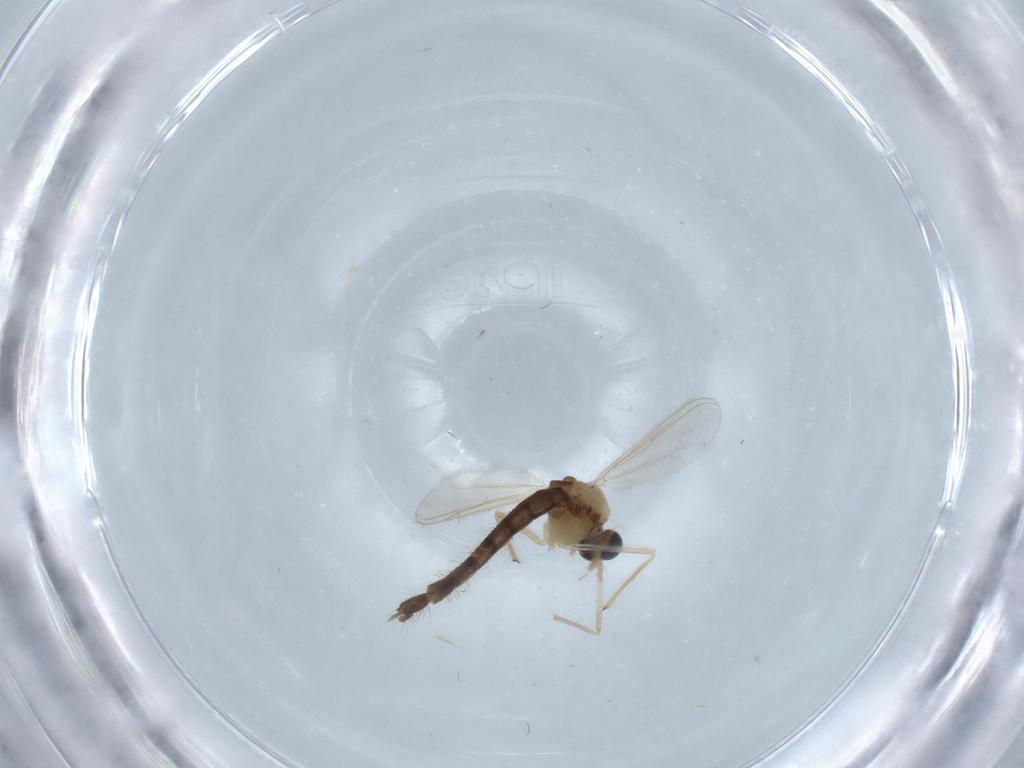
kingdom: Animalia
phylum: Arthropoda
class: Insecta
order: Diptera
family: Chironomidae
